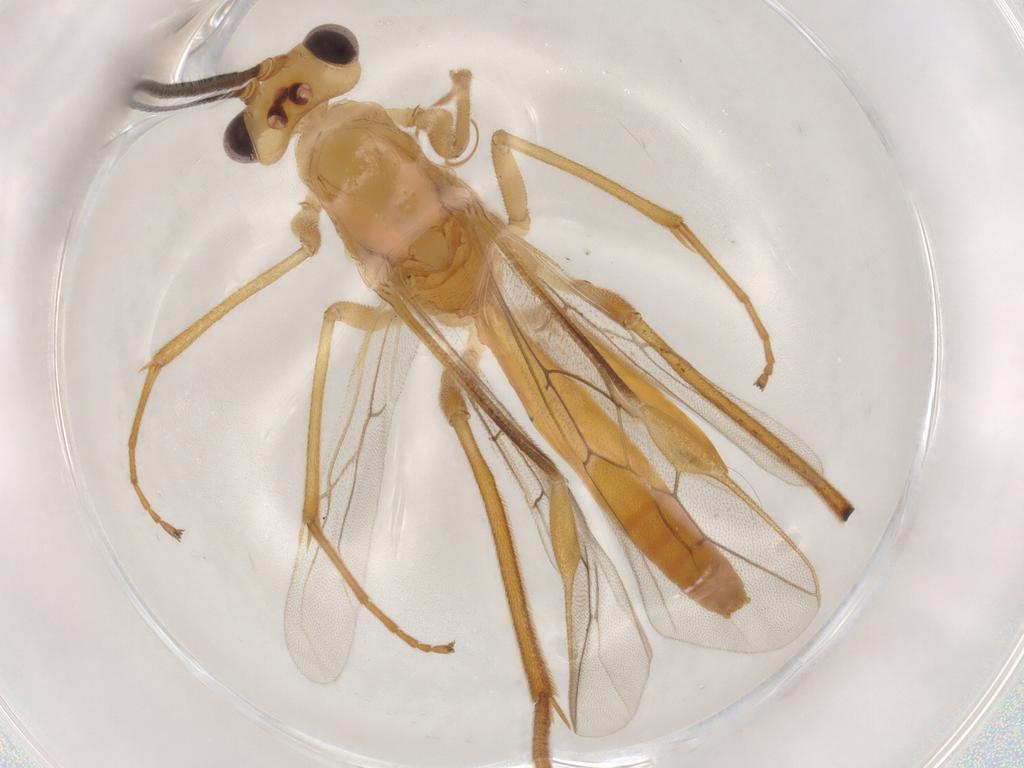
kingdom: Animalia
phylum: Arthropoda
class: Insecta
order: Hymenoptera
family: Braconidae
